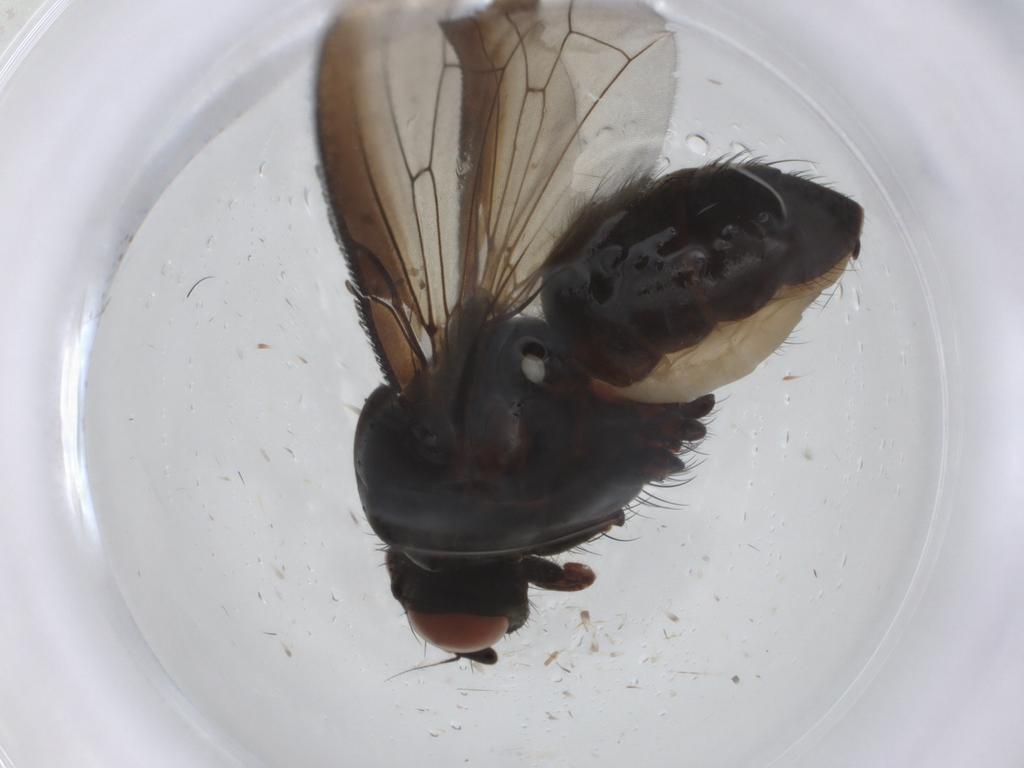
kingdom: Animalia
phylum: Arthropoda
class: Insecta
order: Diptera
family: Anthomyiidae
